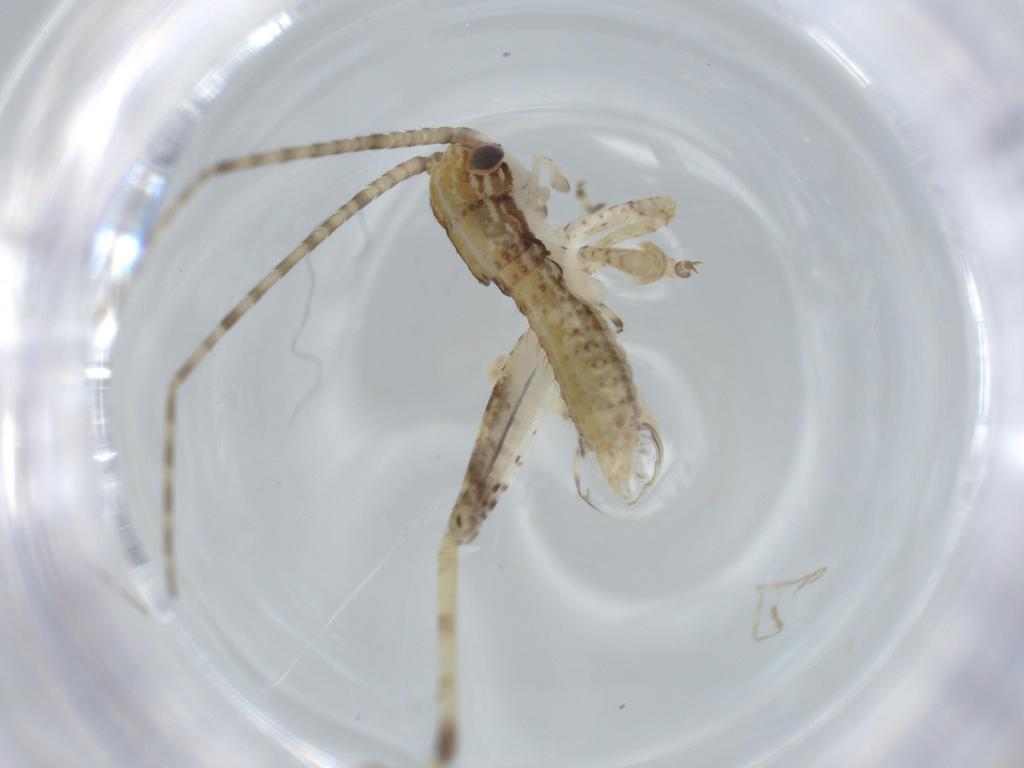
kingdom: Animalia
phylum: Arthropoda
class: Insecta
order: Orthoptera
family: Gryllidae
